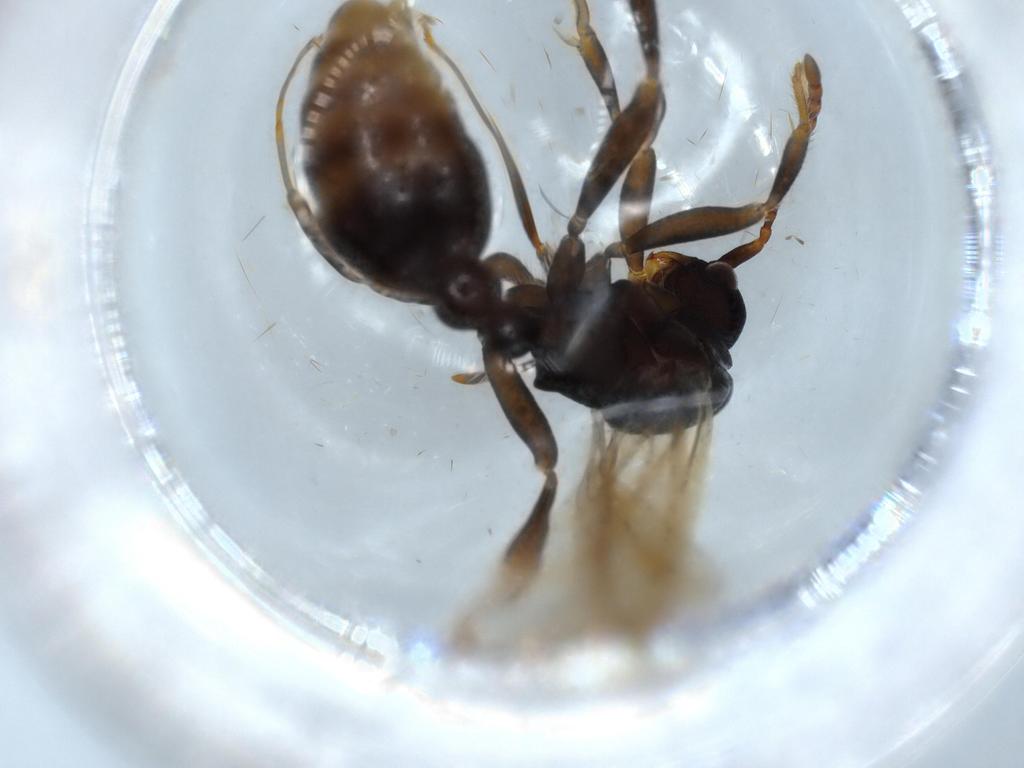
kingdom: Animalia
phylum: Arthropoda
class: Insecta
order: Hymenoptera
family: Formicidae
